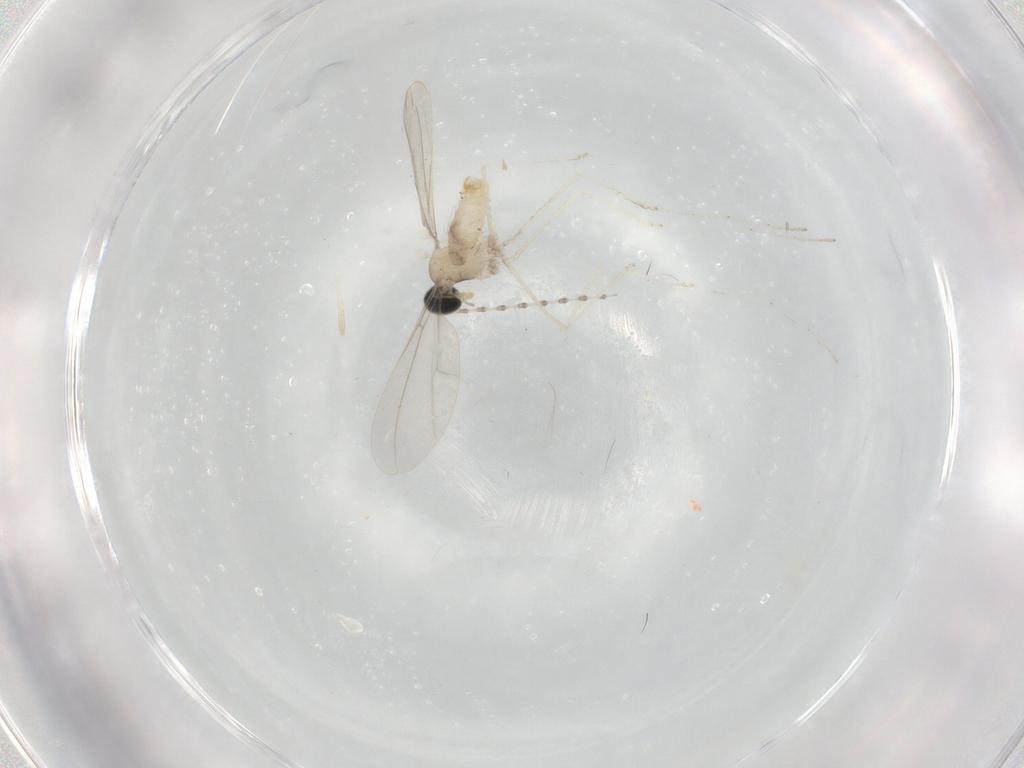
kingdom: Animalia
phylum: Arthropoda
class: Insecta
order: Diptera
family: Cecidomyiidae
